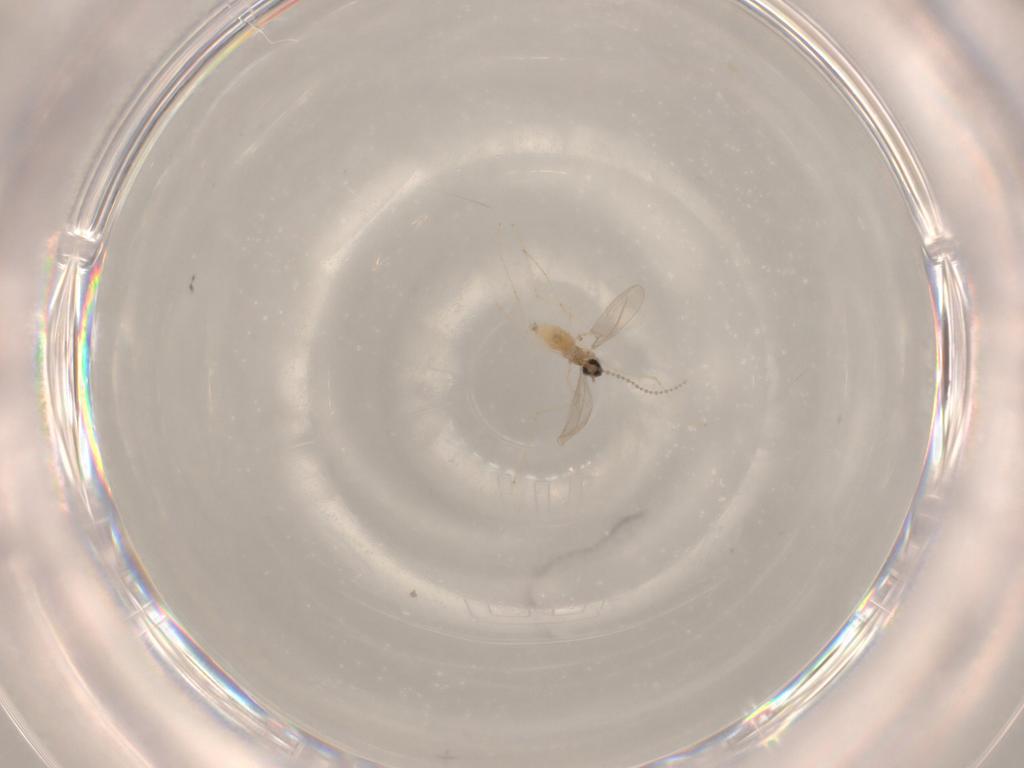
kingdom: Animalia
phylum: Arthropoda
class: Insecta
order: Diptera
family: Cecidomyiidae
